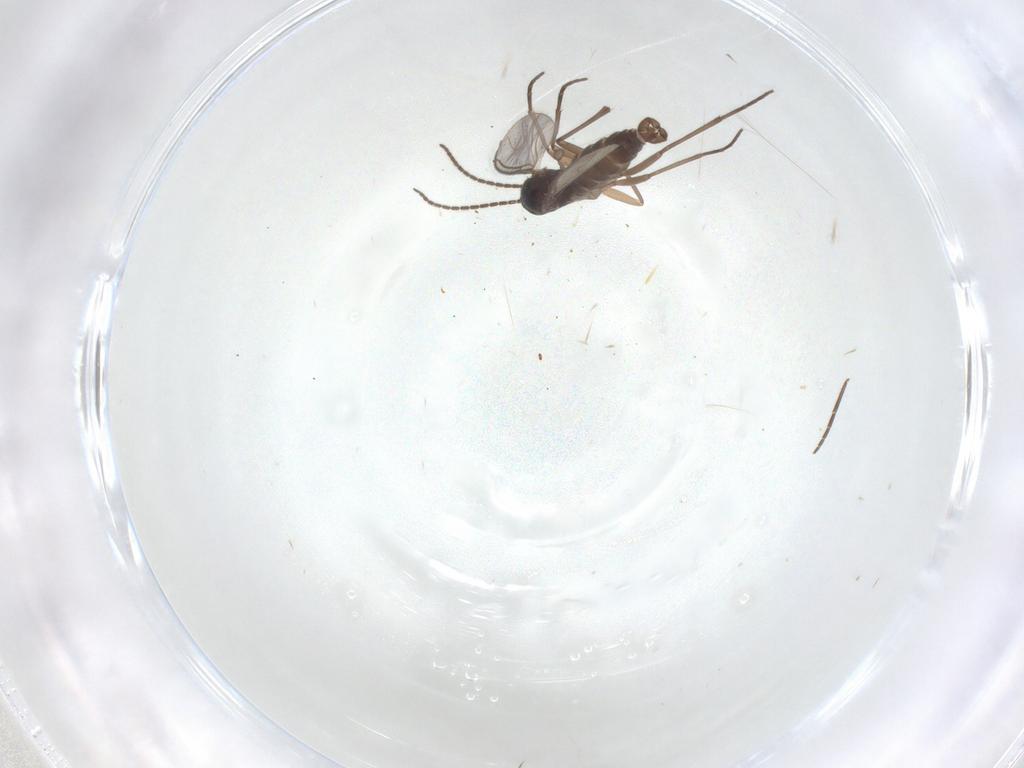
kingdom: Animalia
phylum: Arthropoda
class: Insecta
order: Diptera
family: Sciaridae
